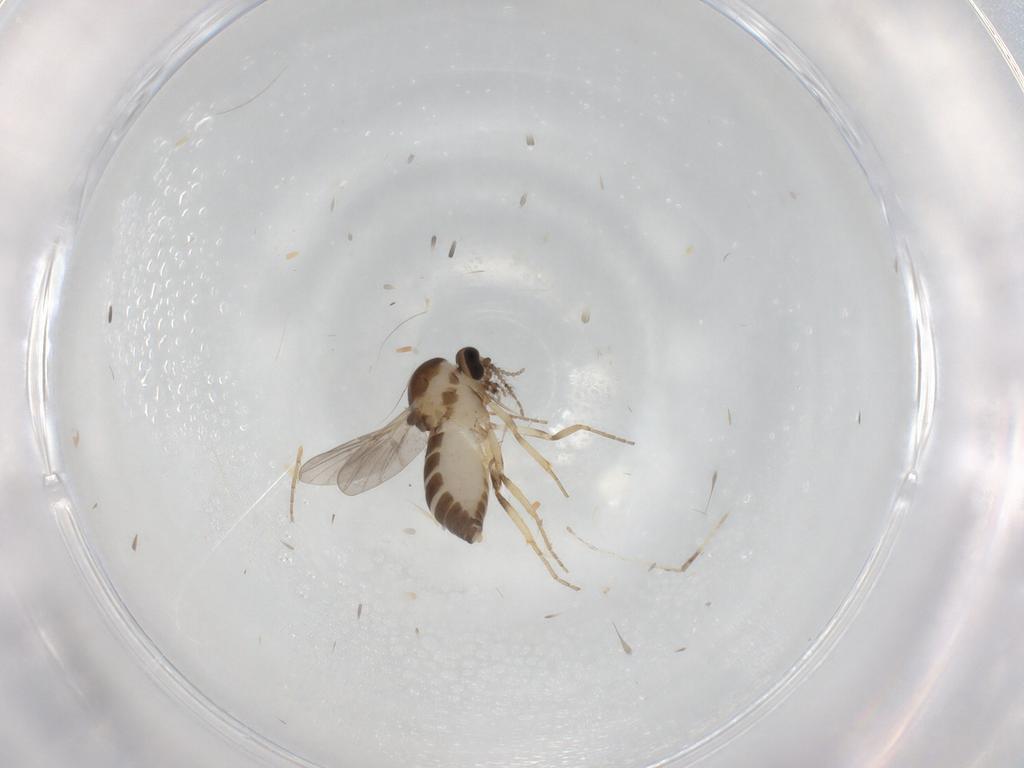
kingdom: Animalia
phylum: Arthropoda
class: Insecta
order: Diptera
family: Ceratopogonidae
